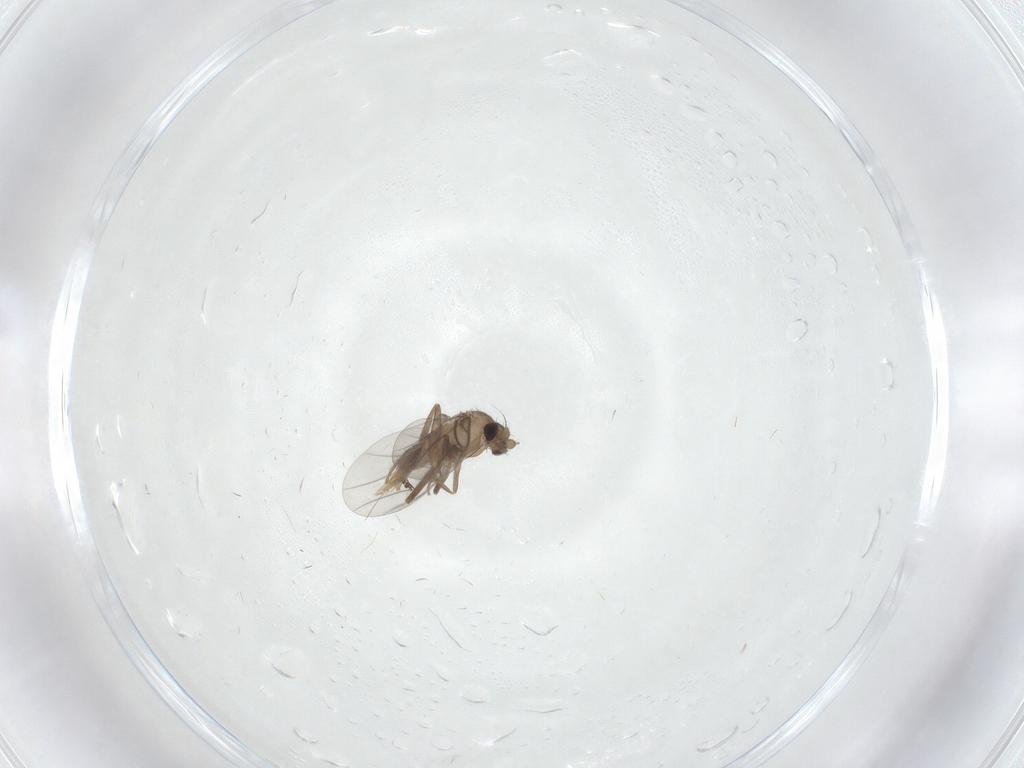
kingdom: Animalia
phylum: Arthropoda
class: Insecta
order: Diptera
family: Ceratopogonidae
